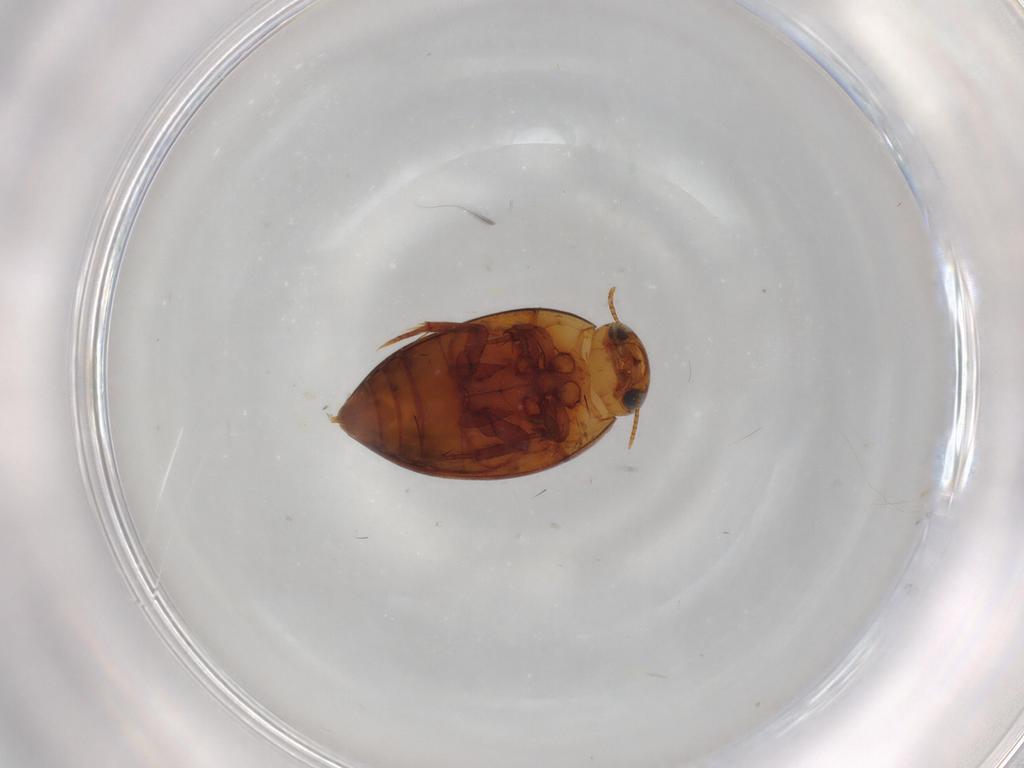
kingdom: Animalia
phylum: Arthropoda
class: Insecta
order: Coleoptera
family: Noteridae
